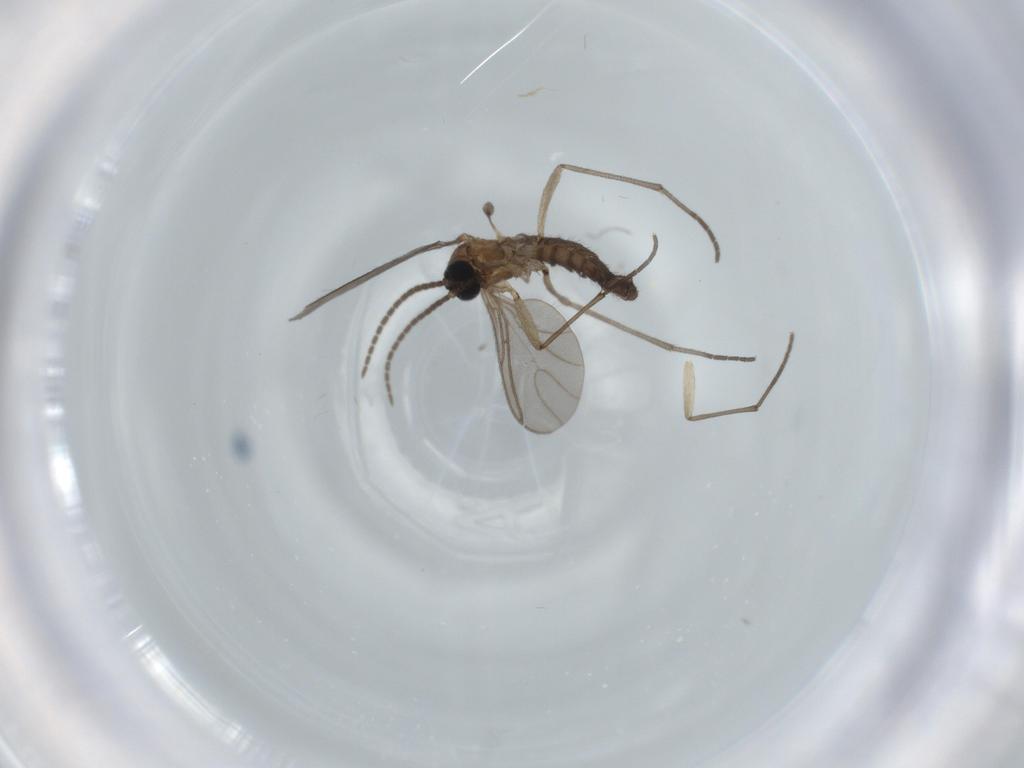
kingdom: Animalia
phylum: Arthropoda
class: Insecta
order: Diptera
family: Sciaridae
